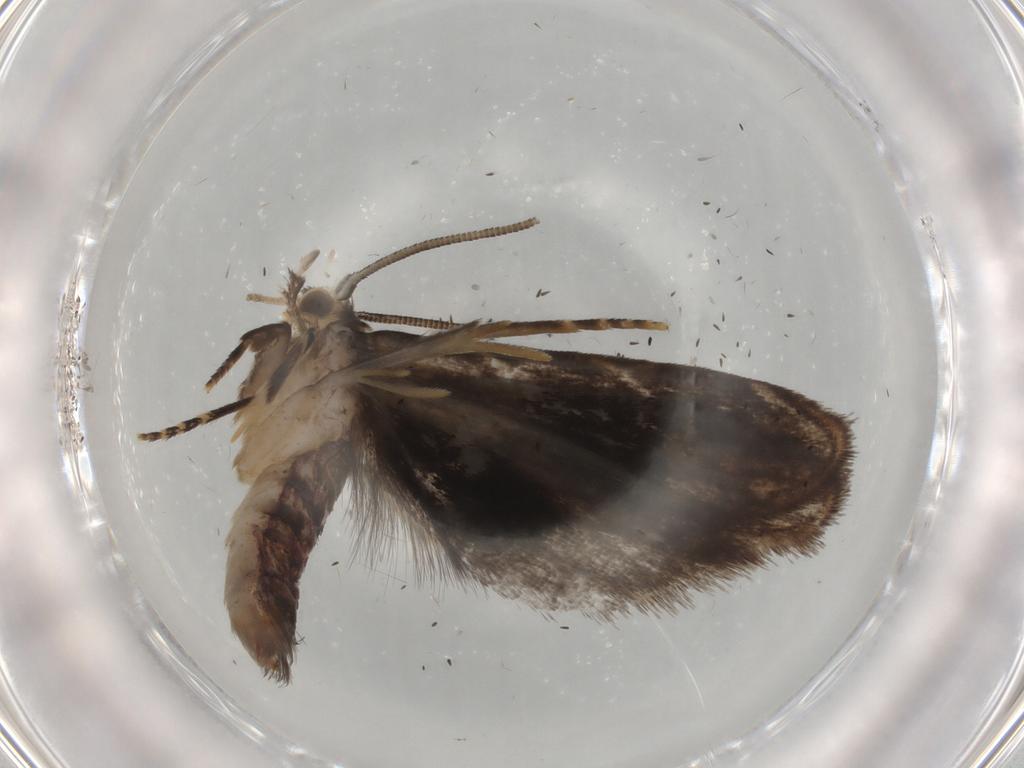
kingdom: Animalia
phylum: Arthropoda
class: Insecta
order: Lepidoptera
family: Dryadaulidae
